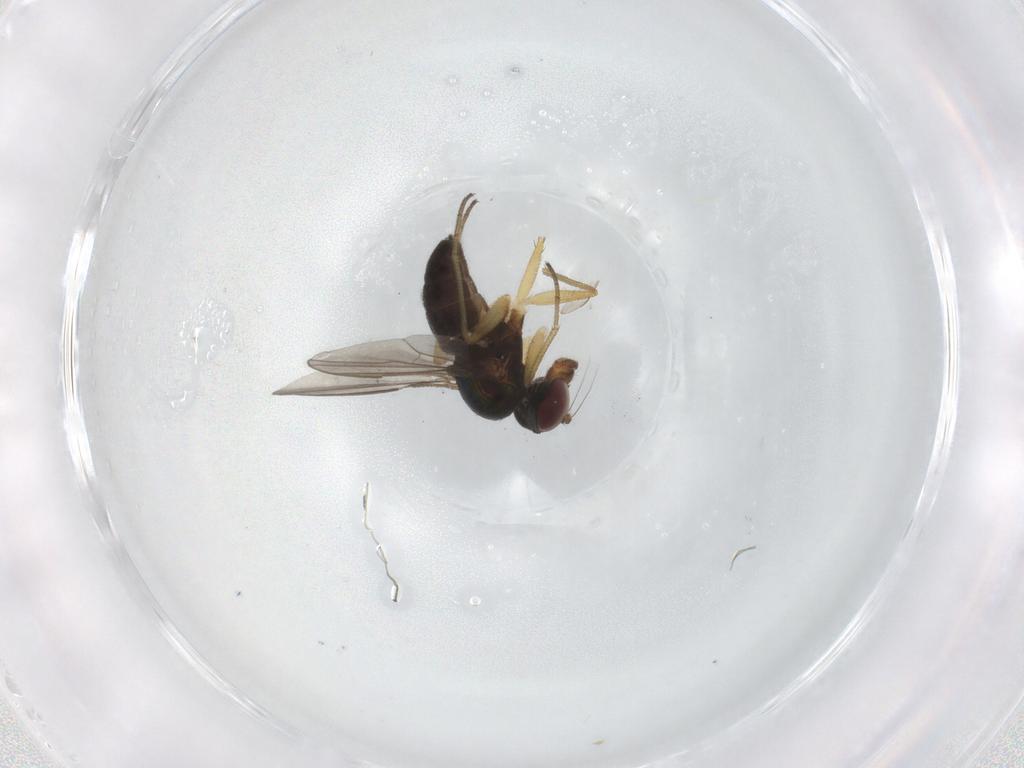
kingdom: Animalia
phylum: Arthropoda
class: Insecta
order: Diptera
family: Dolichopodidae
